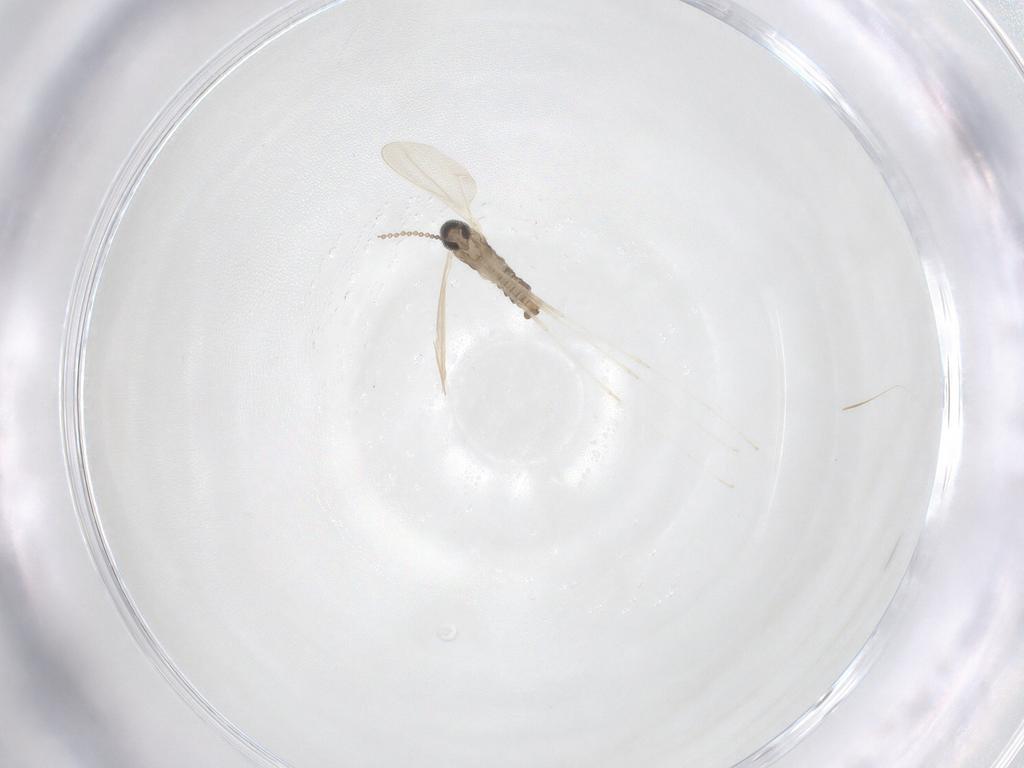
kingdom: Animalia
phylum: Arthropoda
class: Insecta
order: Diptera
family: Cecidomyiidae
